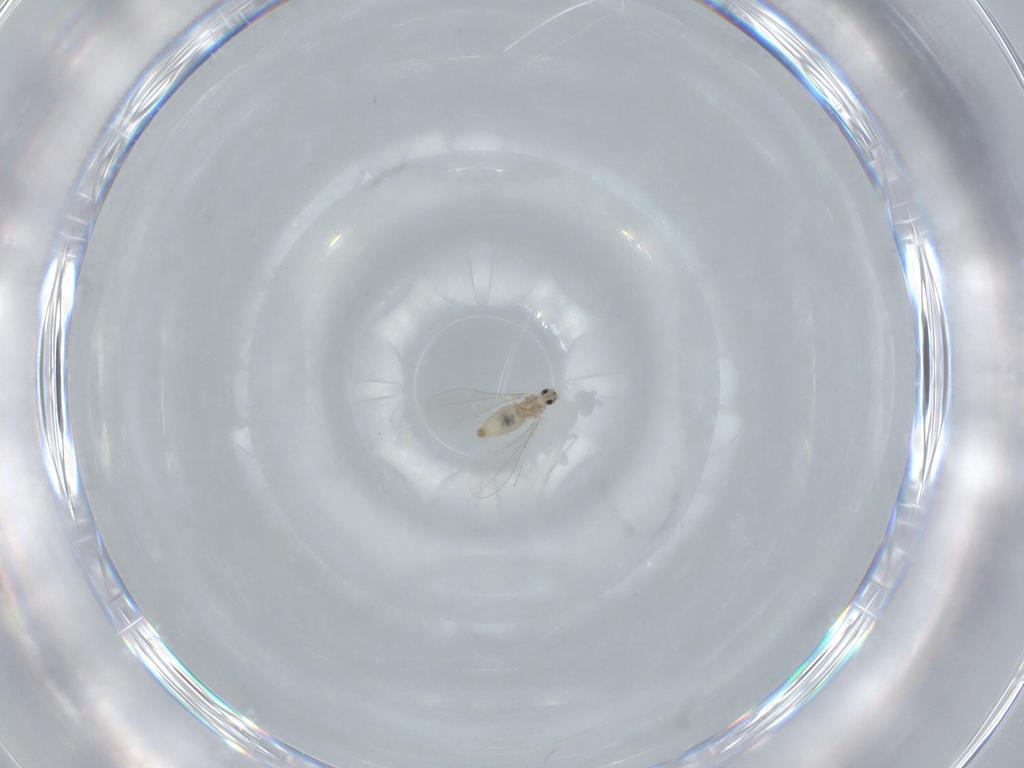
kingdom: Animalia
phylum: Arthropoda
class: Insecta
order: Diptera
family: Cecidomyiidae
